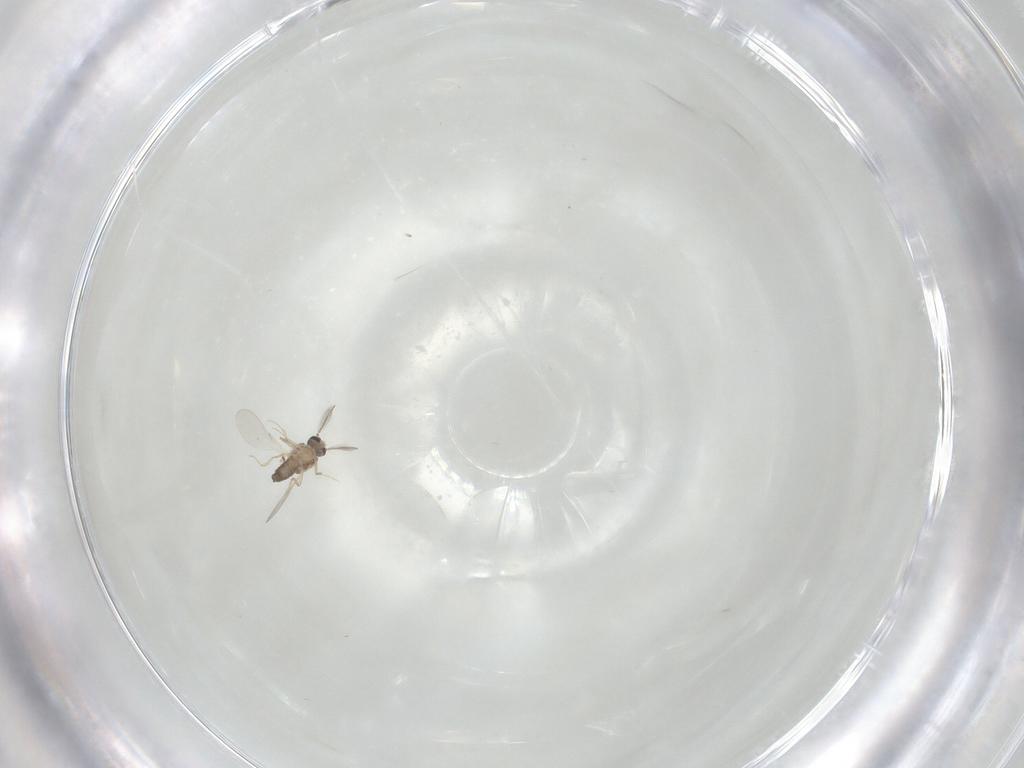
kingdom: Animalia
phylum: Arthropoda
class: Insecta
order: Diptera
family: Ceratopogonidae
